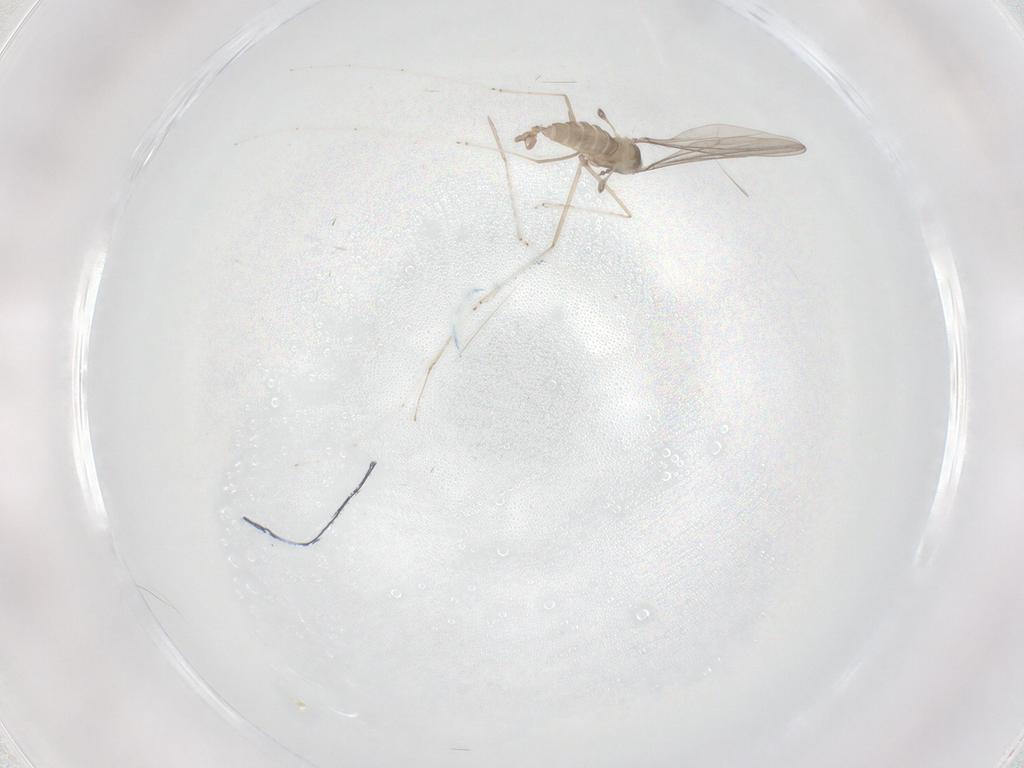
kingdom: Animalia
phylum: Arthropoda
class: Insecta
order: Diptera
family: Cecidomyiidae
